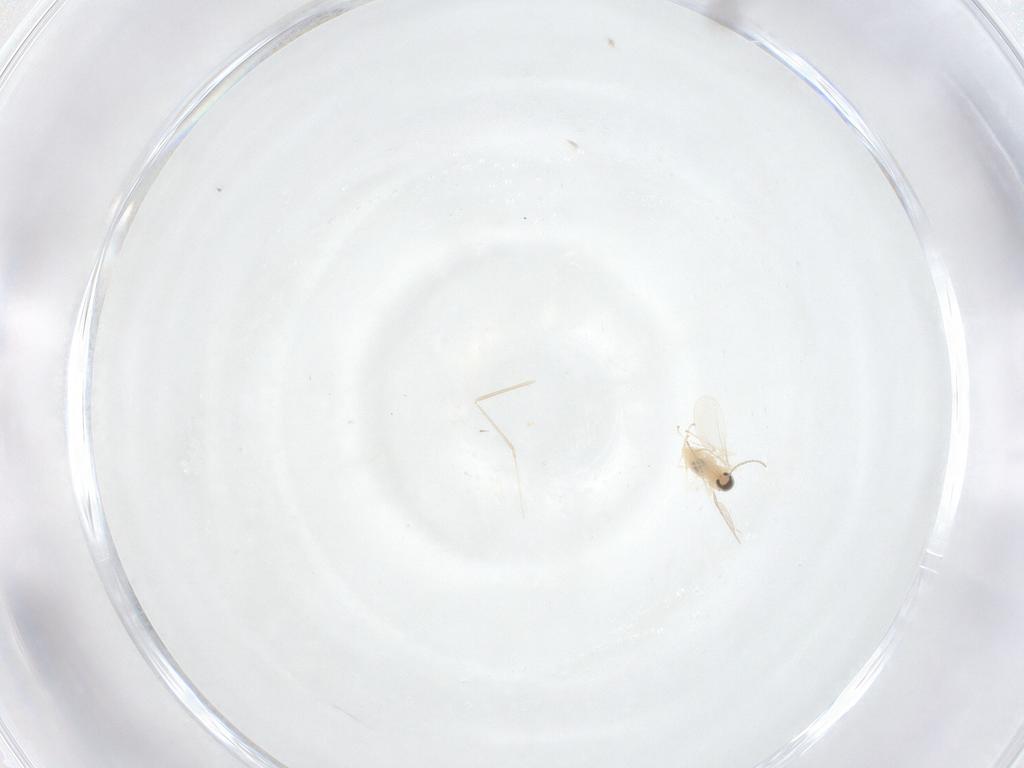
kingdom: Animalia
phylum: Arthropoda
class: Insecta
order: Diptera
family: Cecidomyiidae
